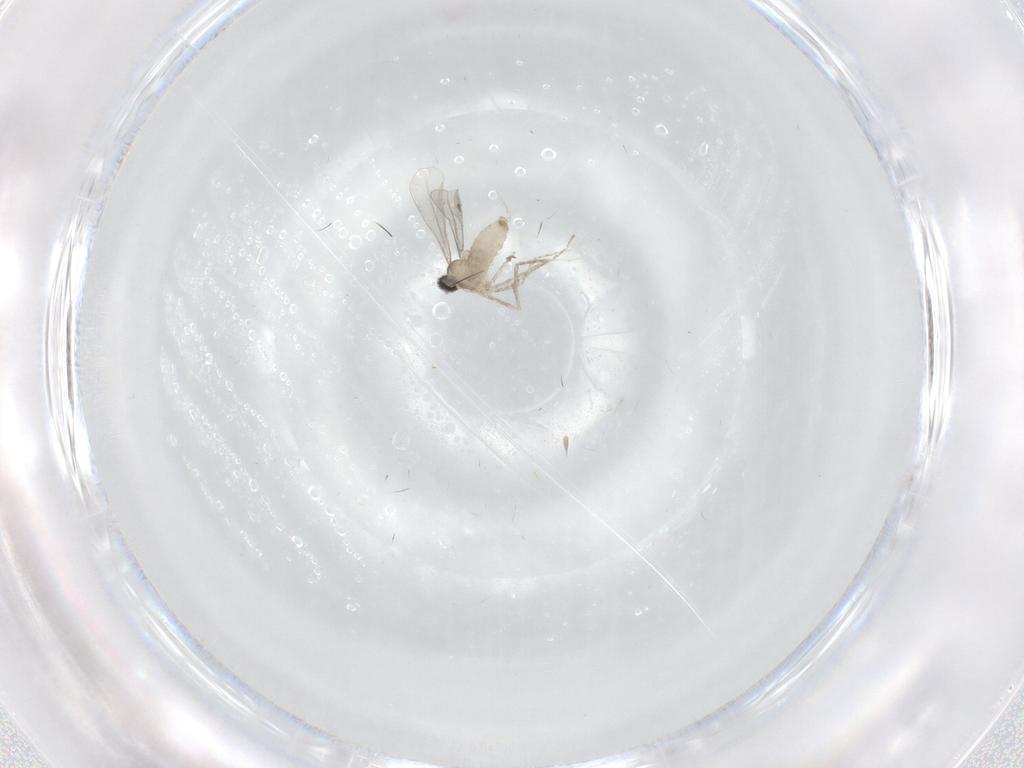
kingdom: Animalia
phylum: Arthropoda
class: Insecta
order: Diptera
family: Cecidomyiidae
